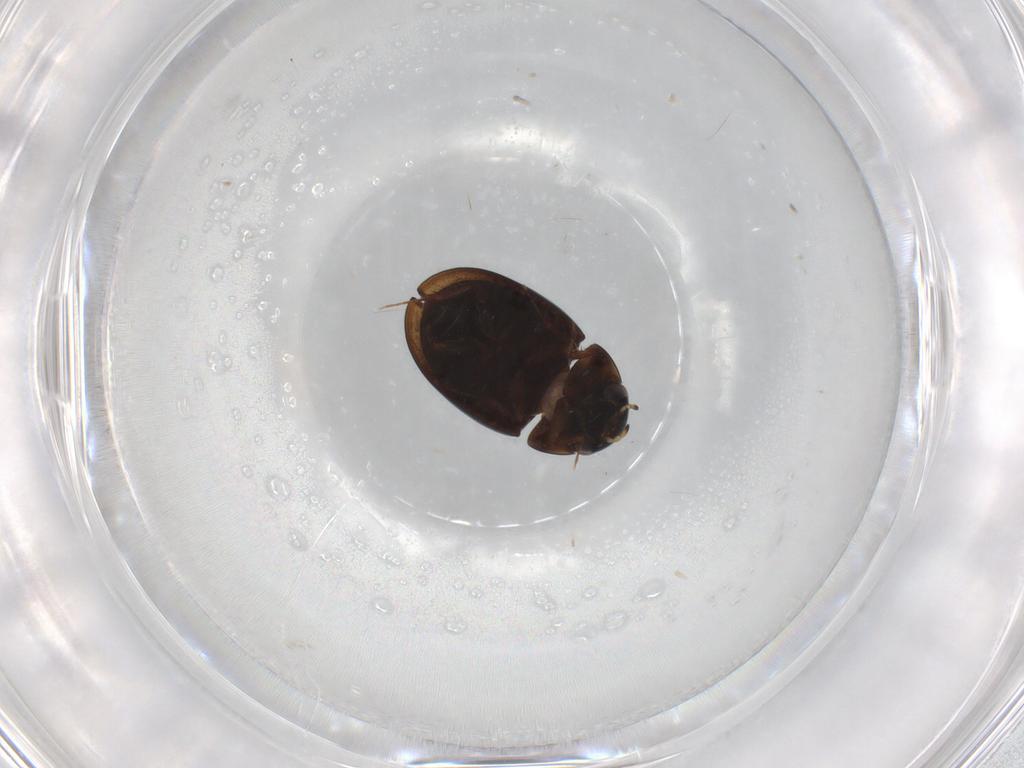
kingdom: Animalia
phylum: Arthropoda
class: Insecta
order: Coleoptera
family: Hydrophilidae
